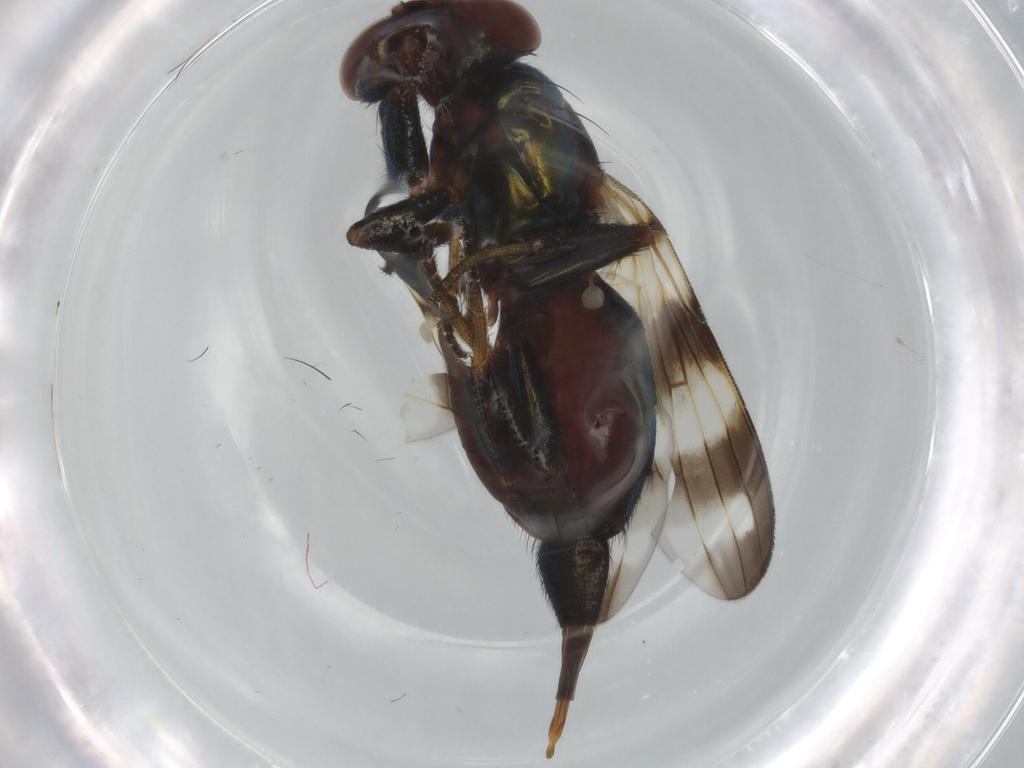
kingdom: Animalia
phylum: Arthropoda
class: Insecta
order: Diptera
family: Ulidiidae
